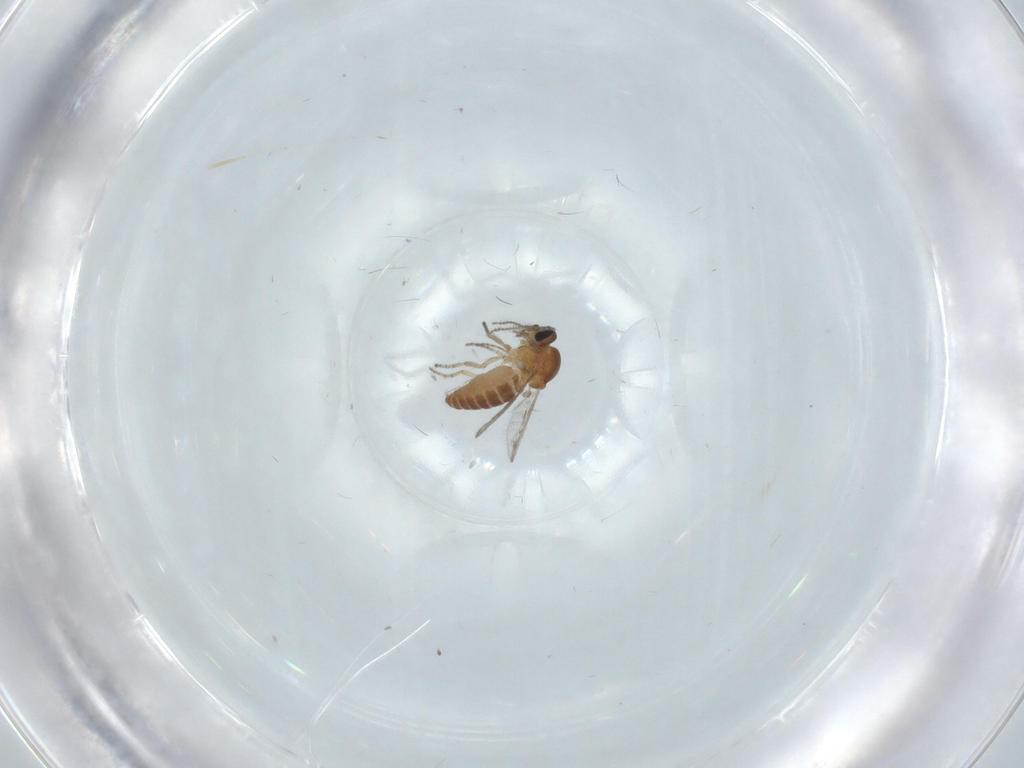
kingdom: Animalia
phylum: Arthropoda
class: Insecta
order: Diptera
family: Ceratopogonidae
